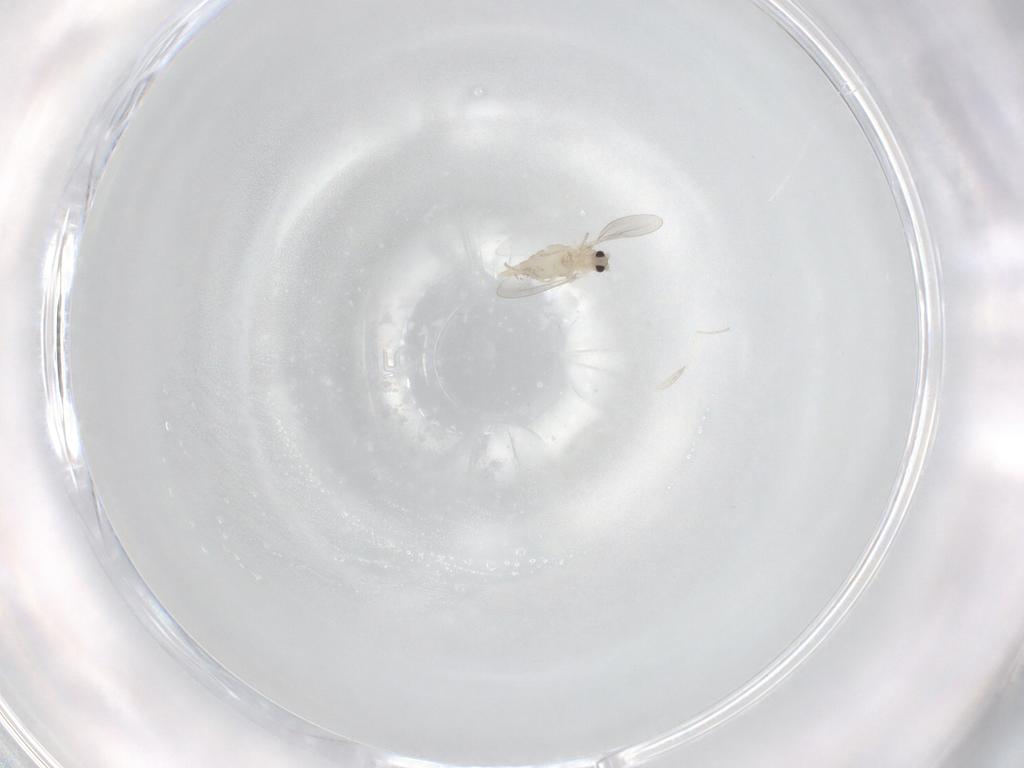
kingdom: Animalia
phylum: Arthropoda
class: Insecta
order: Diptera
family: Cecidomyiidae
